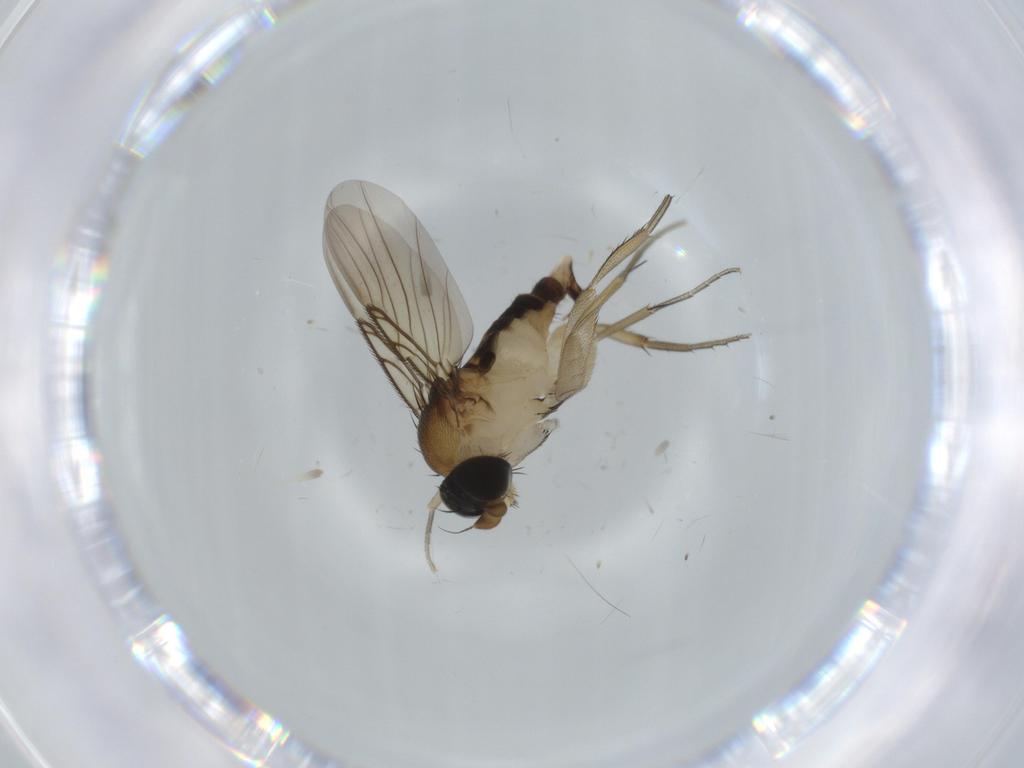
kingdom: Animalia
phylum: Arthropoda
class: Insecta
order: Diptera
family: Phoridae
